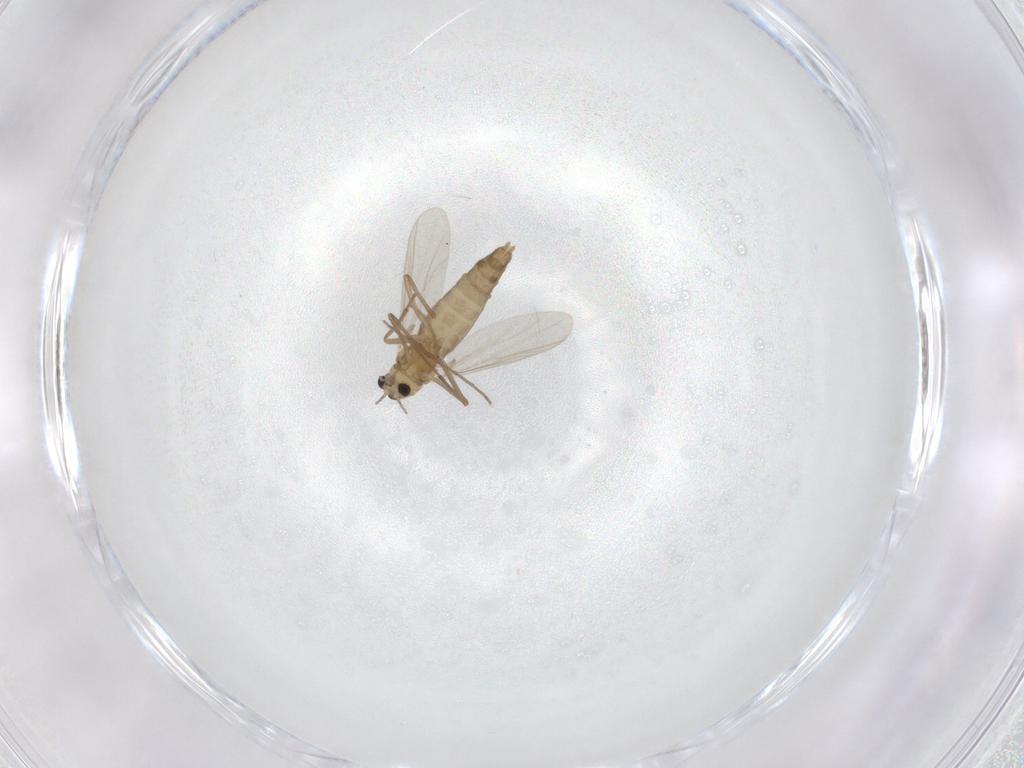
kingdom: Animalia
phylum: Arthropoda
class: Insecta
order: Diptera
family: Chironomidae
